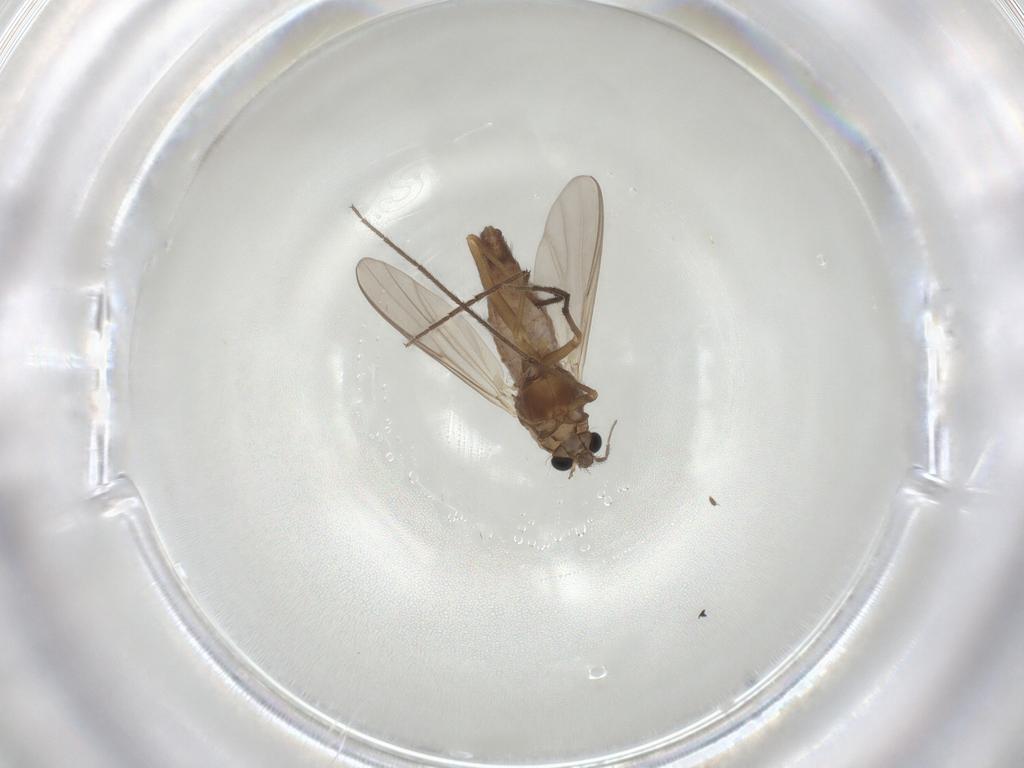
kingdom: Animalia
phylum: Arthropoda
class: Insecta
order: Diptera
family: Chironomidae
